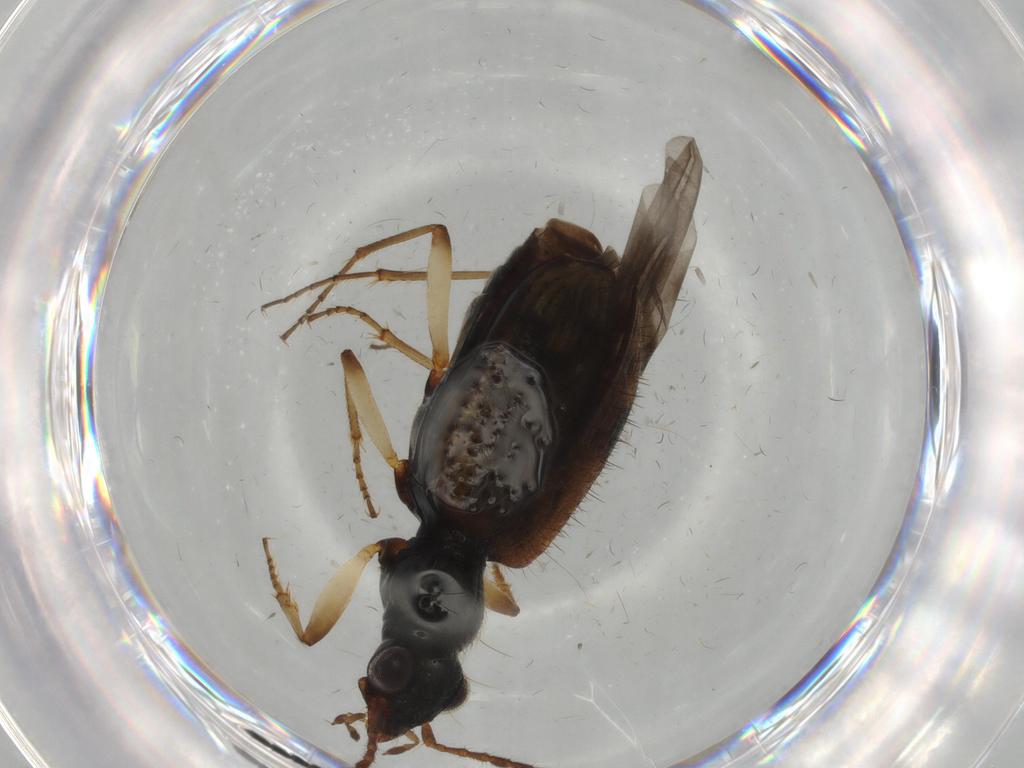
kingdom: Animalia
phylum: Arthropoda
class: Insecta
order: Coleoptera
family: Carabidae
